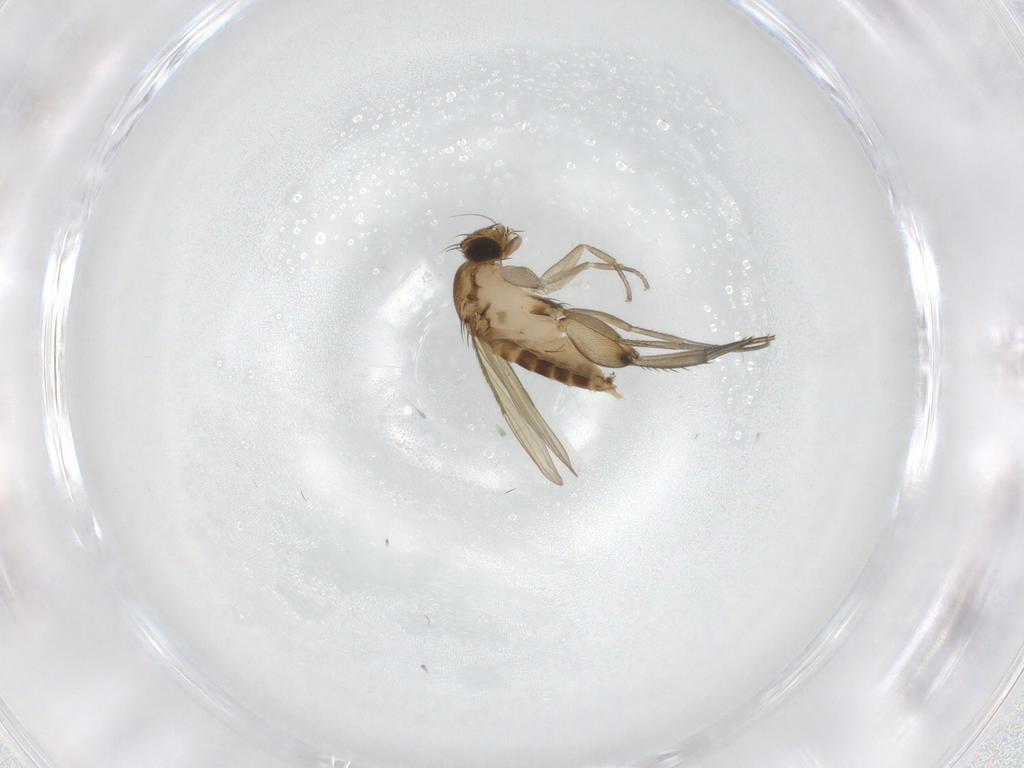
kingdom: Animalia
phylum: Arthropoda
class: Insecta
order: Diptera
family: Phoridae
